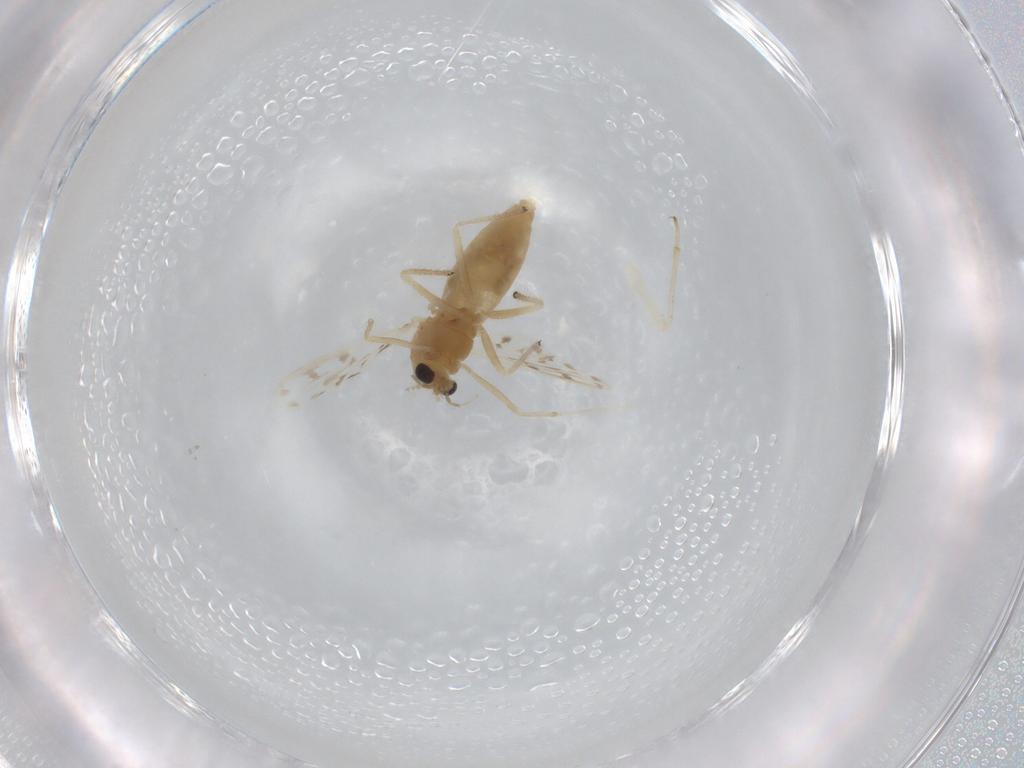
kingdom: Animalia
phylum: Arthropoda
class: Insecta
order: Diptera
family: Chironomidae
